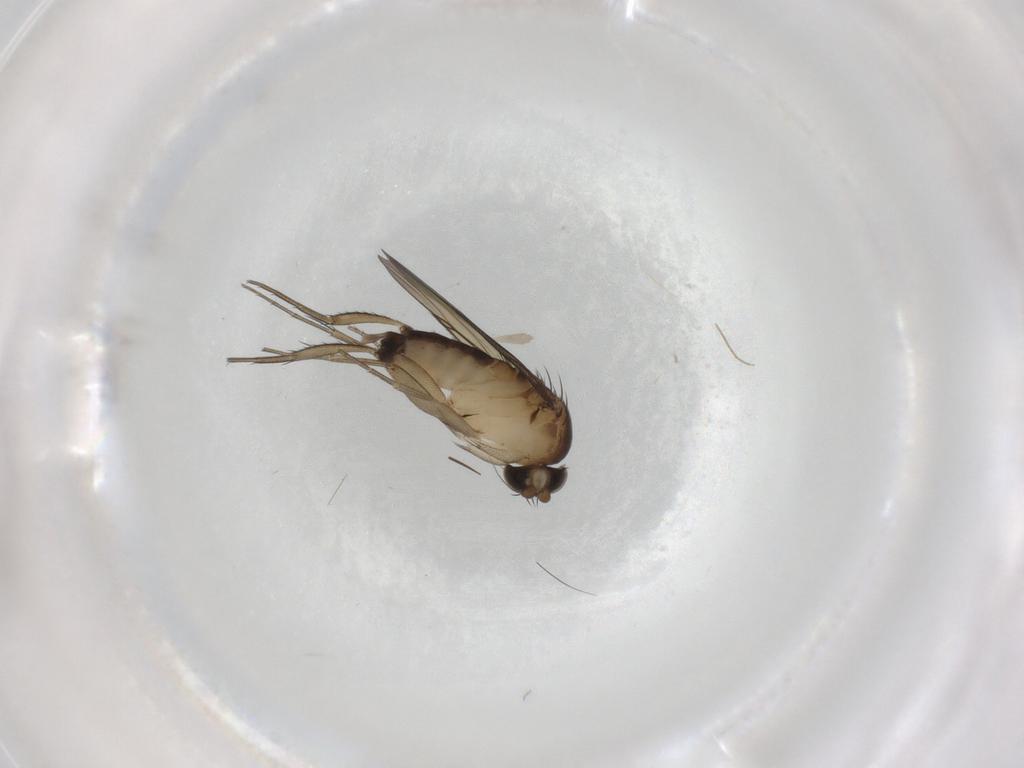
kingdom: Animalia
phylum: Arthropoda
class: Insecta
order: Diptera
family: Phoridae
